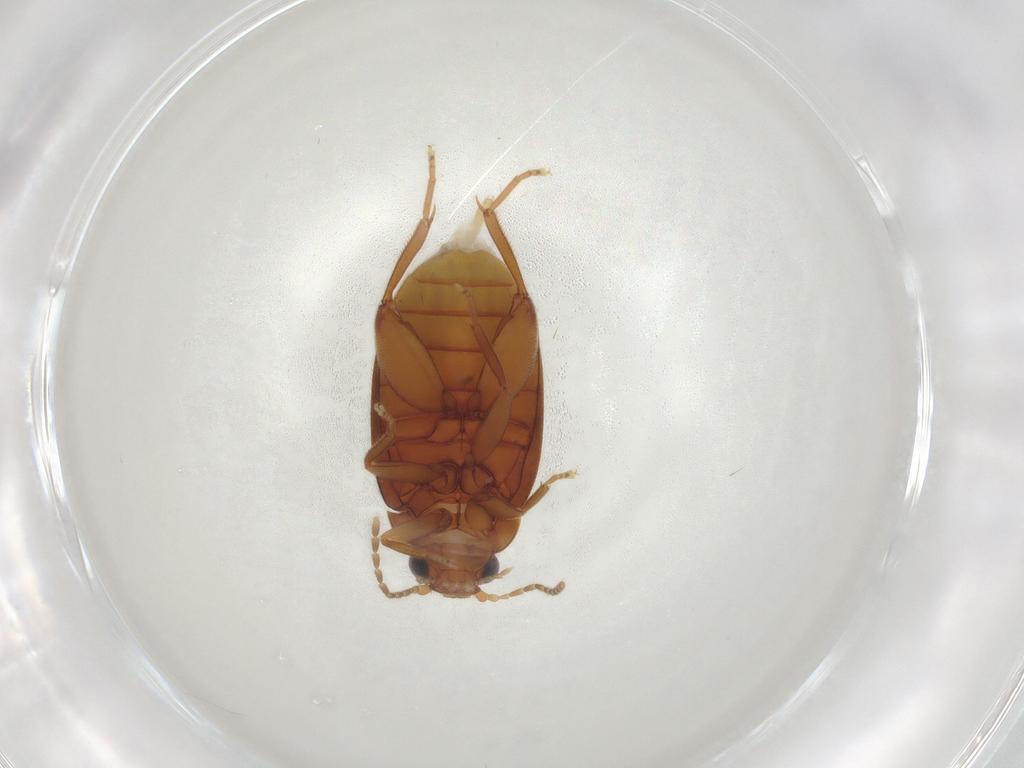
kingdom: Animalia
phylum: Arthropoda
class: Insecta
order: Coleoptera
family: Scirtidae
